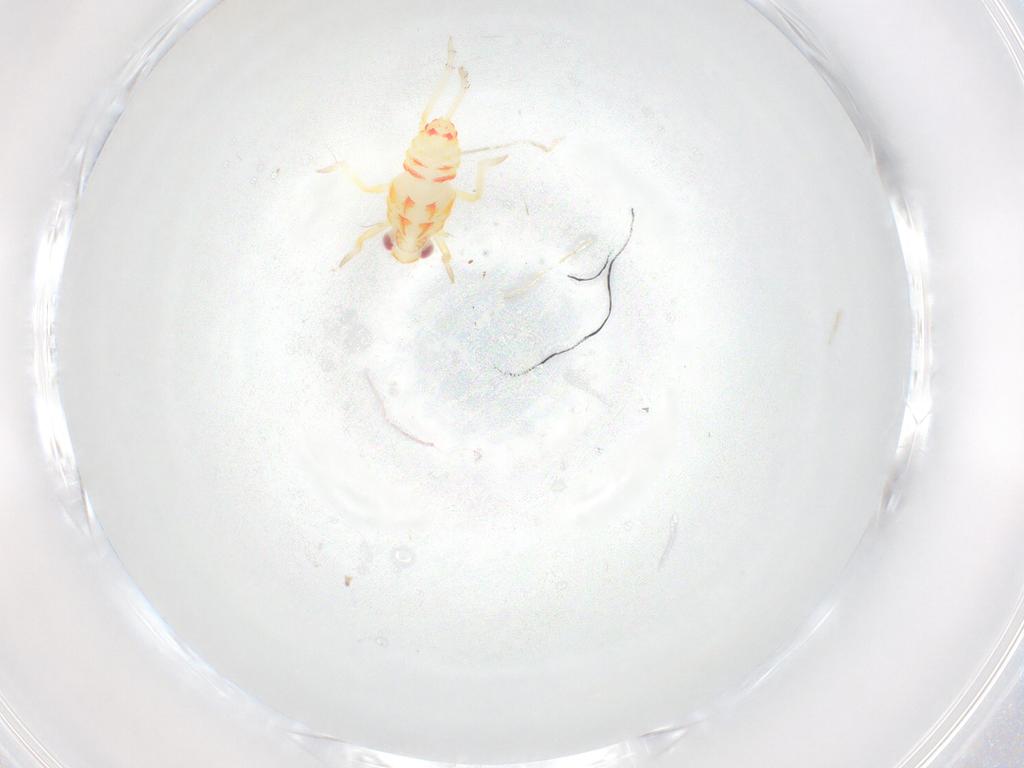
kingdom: Animalia
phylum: Arthropoda
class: Insecta
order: Hemiptera
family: Tropiduchidae
